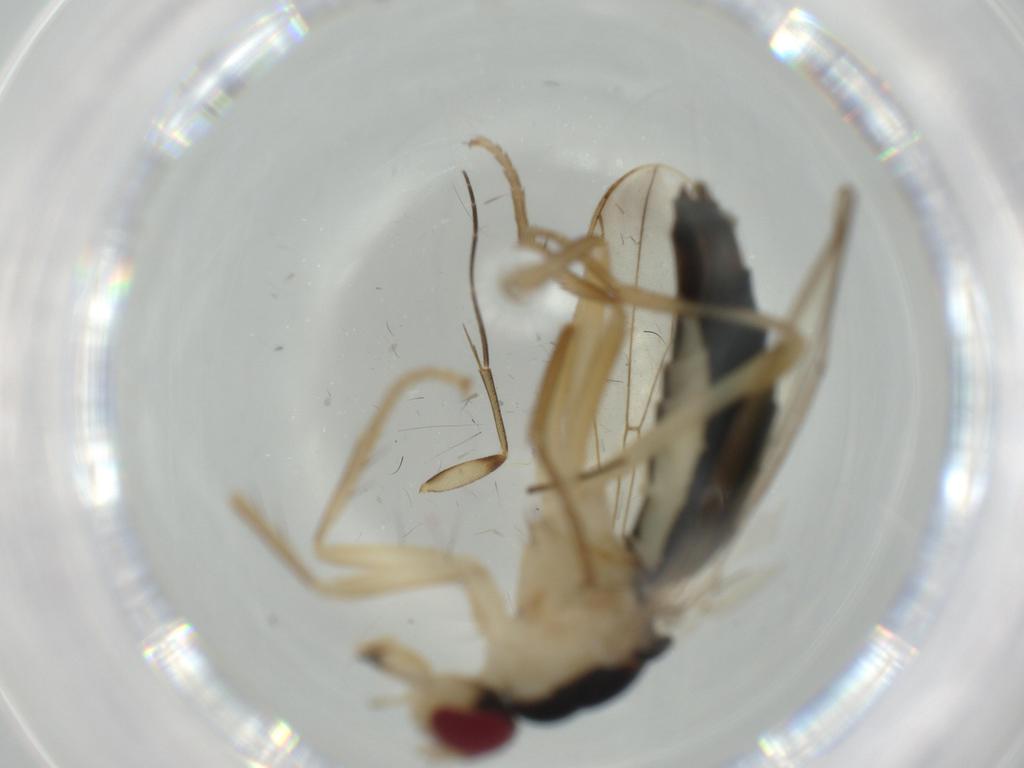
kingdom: Animalia
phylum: Arthropoda
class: Insecta
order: Diptera
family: Scathophagidae
